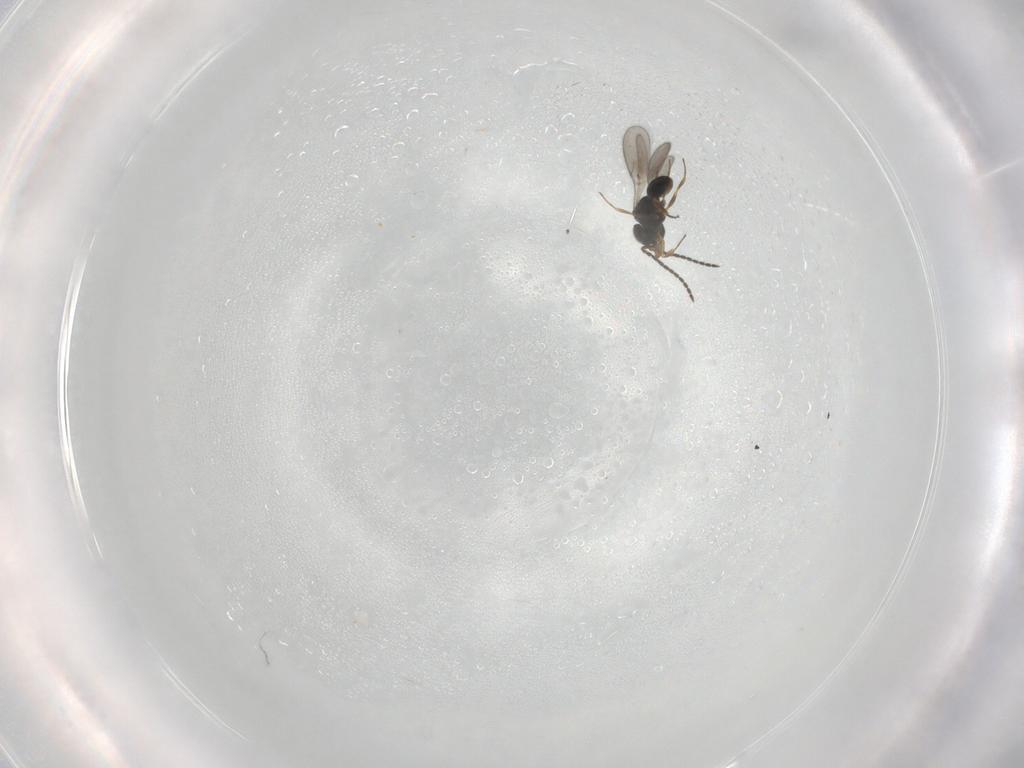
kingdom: Animalia
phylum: Arthropoda
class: Insecta
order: Hymenoptera
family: Scelionidae
